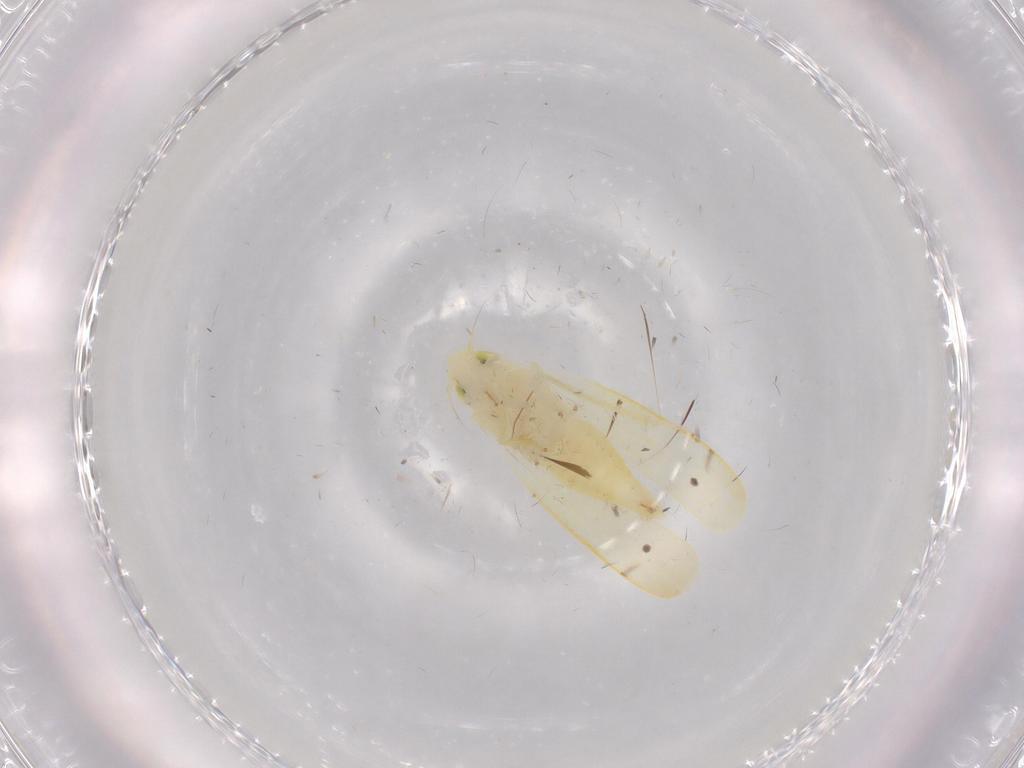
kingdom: Animalia
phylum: Arthropoda
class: Insecta
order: Hemiptera
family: Cicadellidae
